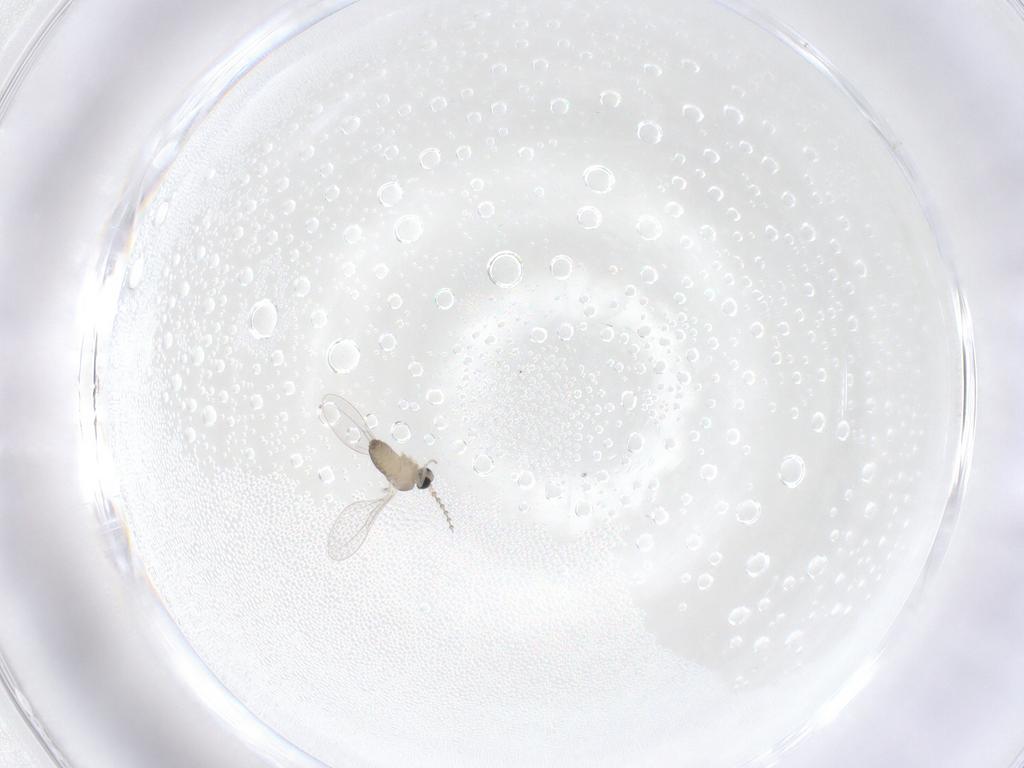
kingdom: Animalia
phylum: Arthropoda
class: Insecta
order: Diptera
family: Cecidomyiidae
